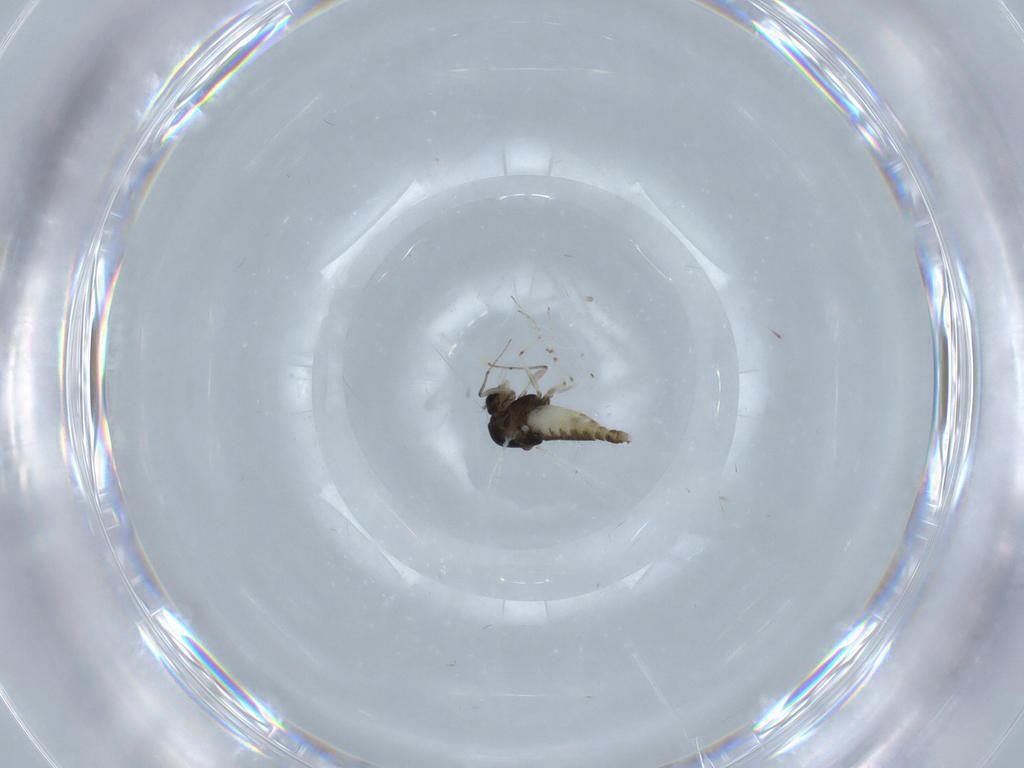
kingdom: Animalia
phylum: Arthropoda
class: Insecta
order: Diptera
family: Chironomidae
